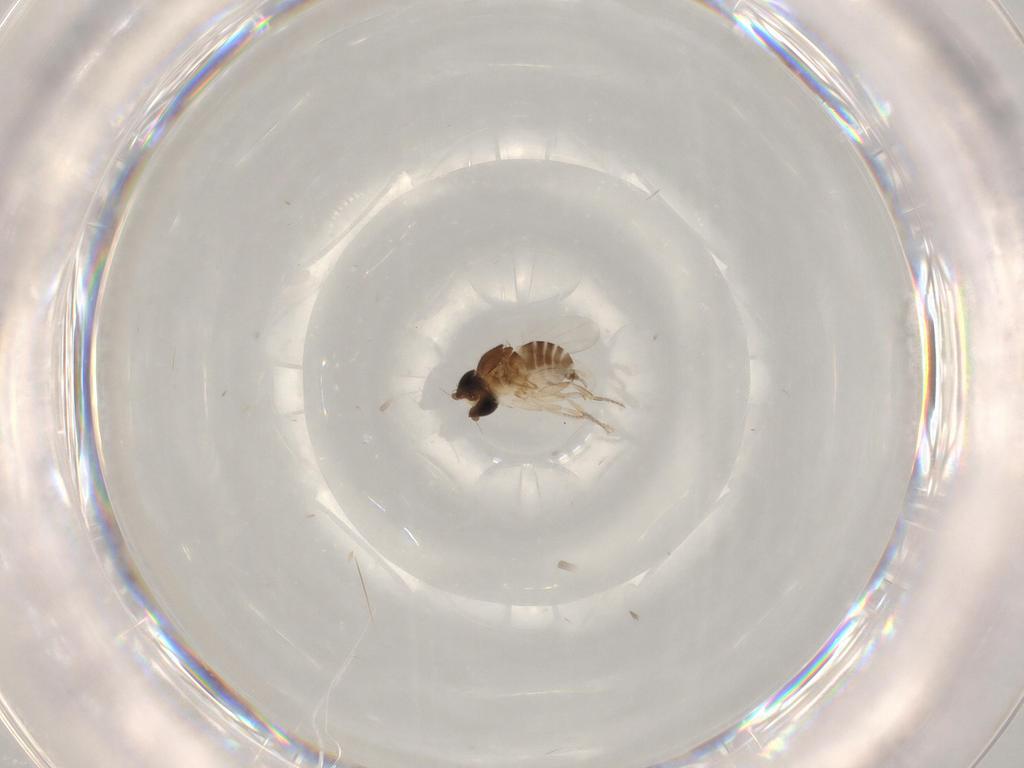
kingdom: Animalia
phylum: Arthropoda
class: Insecta
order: Diptera
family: Phoridae
